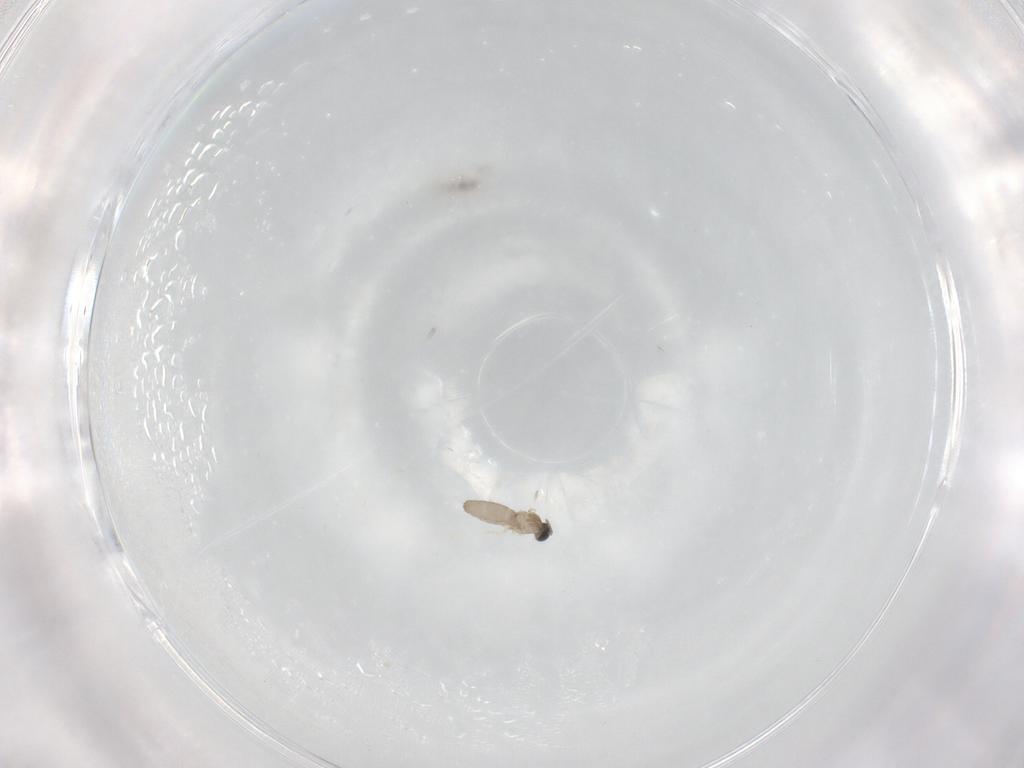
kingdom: Animalia
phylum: Arthropoda
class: Insecta
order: Diptera
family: Cecidomyiidae
